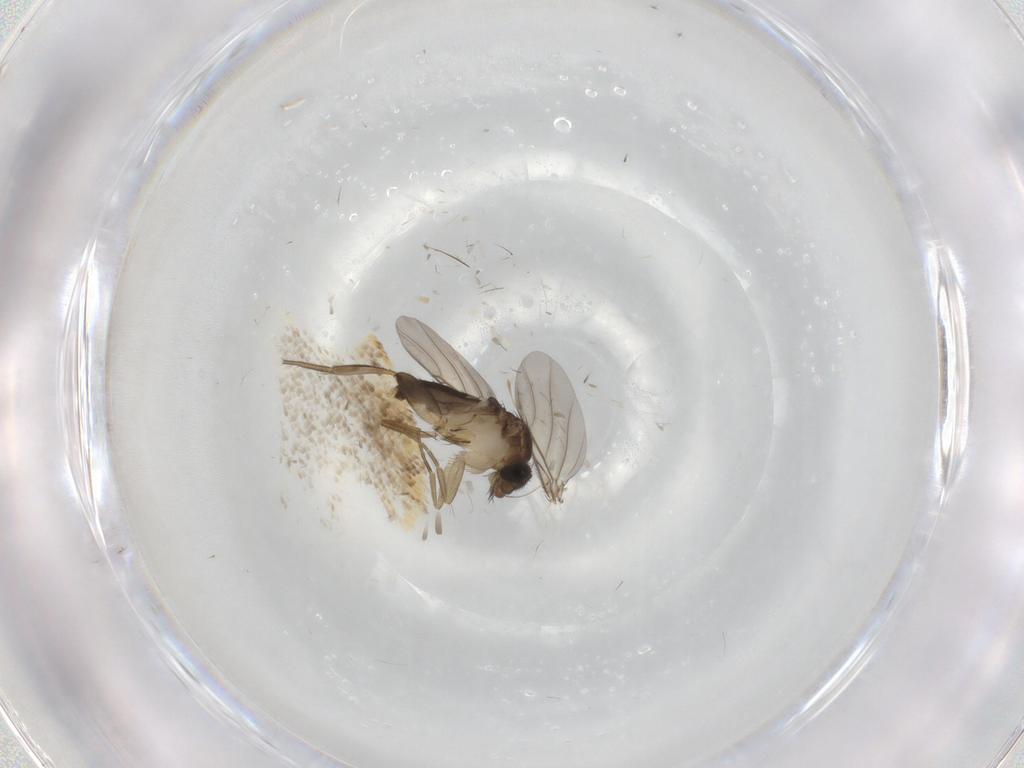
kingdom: Animalia
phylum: Arthropoda
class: Insecta
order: Diptera
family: Phoridae
